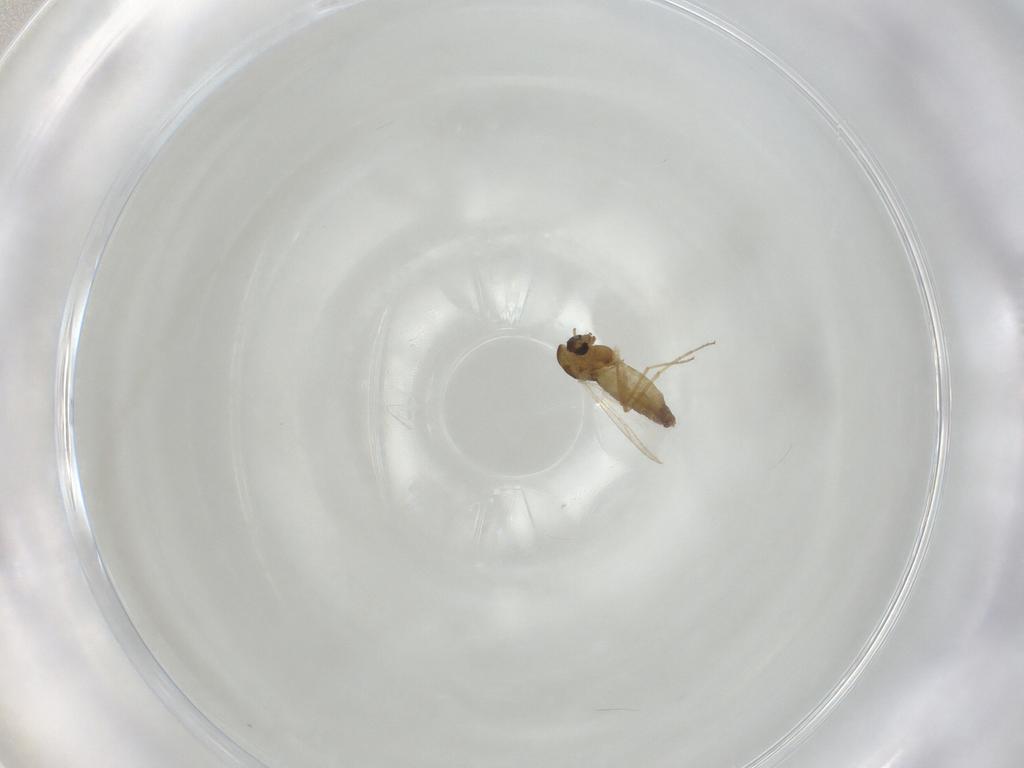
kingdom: Animalia
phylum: Arthropoda
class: Insecta
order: Diptera
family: Chironomidae
